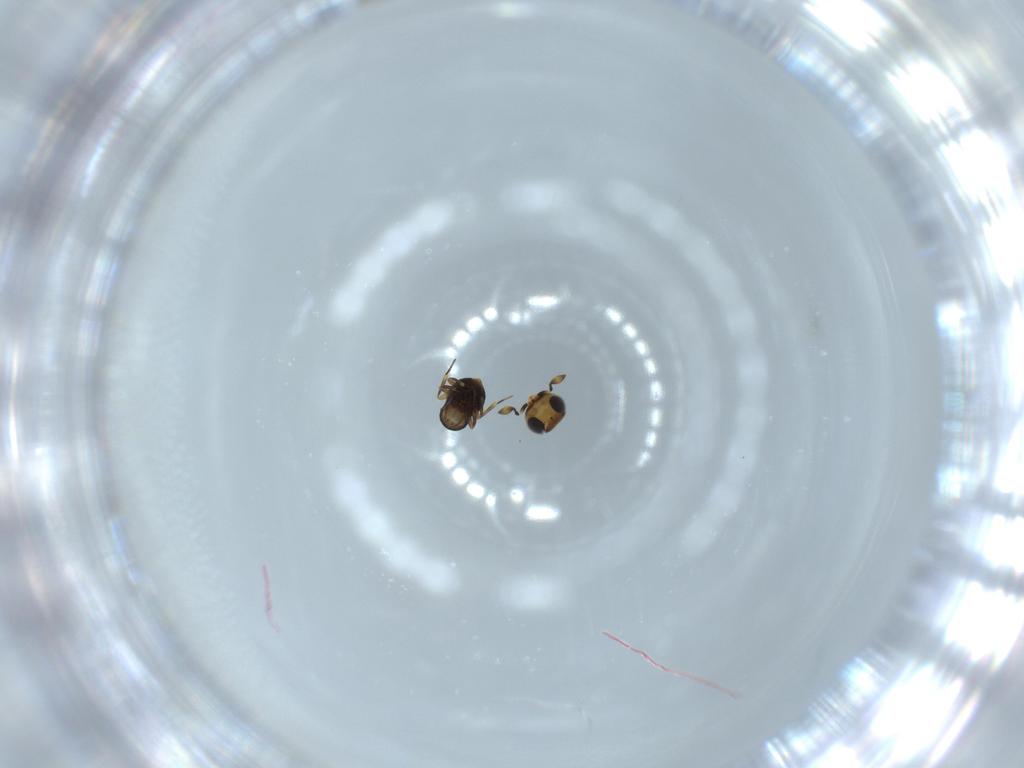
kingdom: Animalia
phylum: Arthropoda
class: Insecta
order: Hymenoptera
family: Scelionidae
